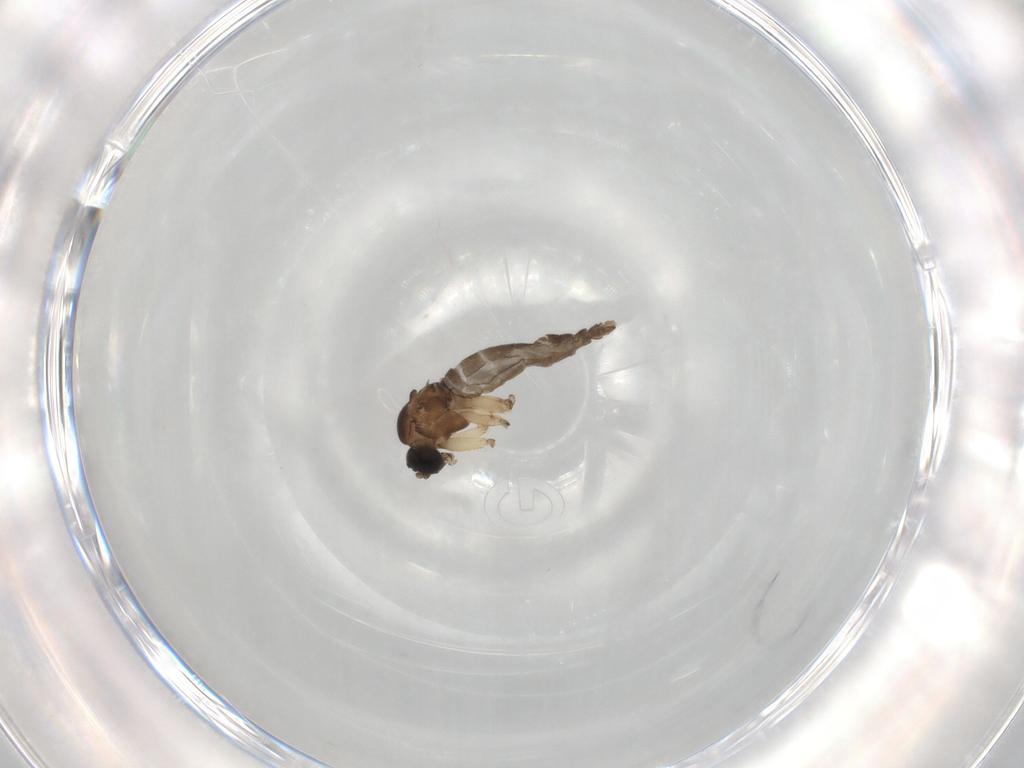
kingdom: Animalia
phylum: Arthropoda
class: Insecta
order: Diptera
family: Sciaridae
